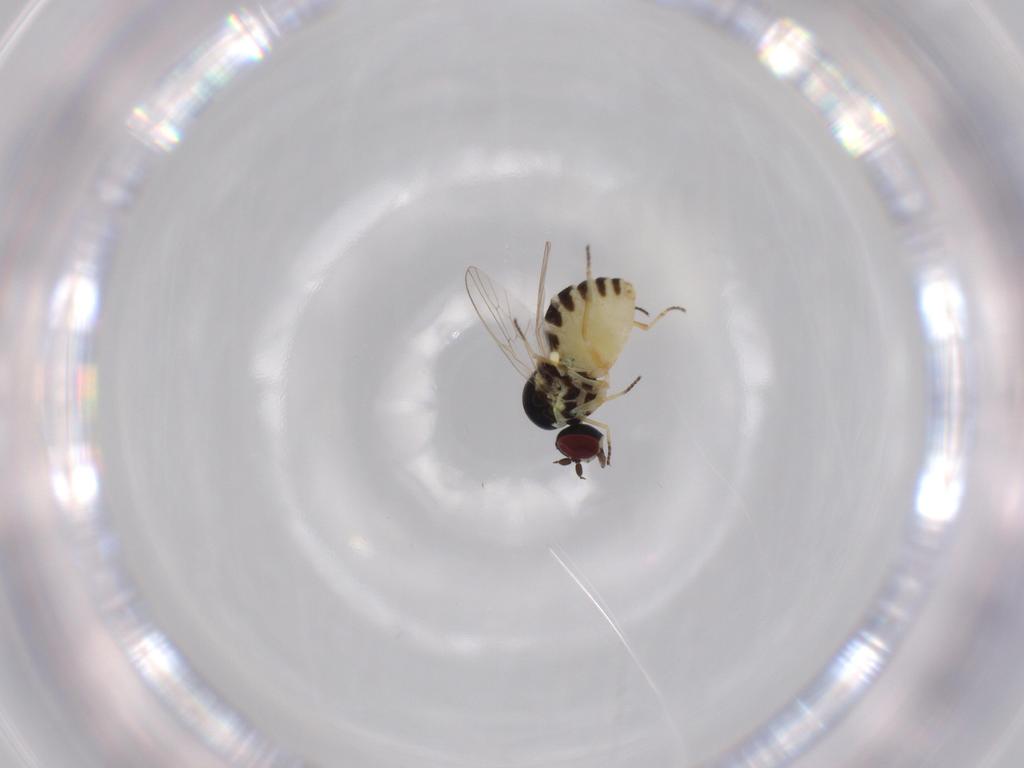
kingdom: Animalia
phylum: Arthropoda
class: Insecta
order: Diptera
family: Bombyliidae
